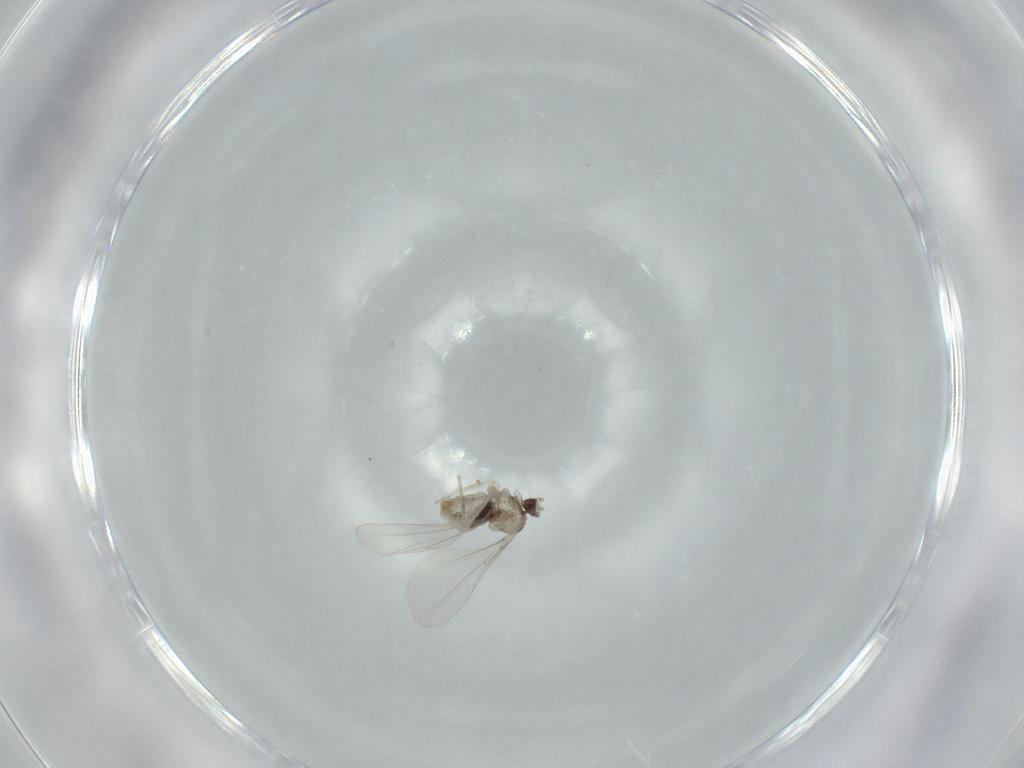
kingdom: Animalia
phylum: Arthropoda
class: Insecta
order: Diptera
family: Cecidomyiidae
